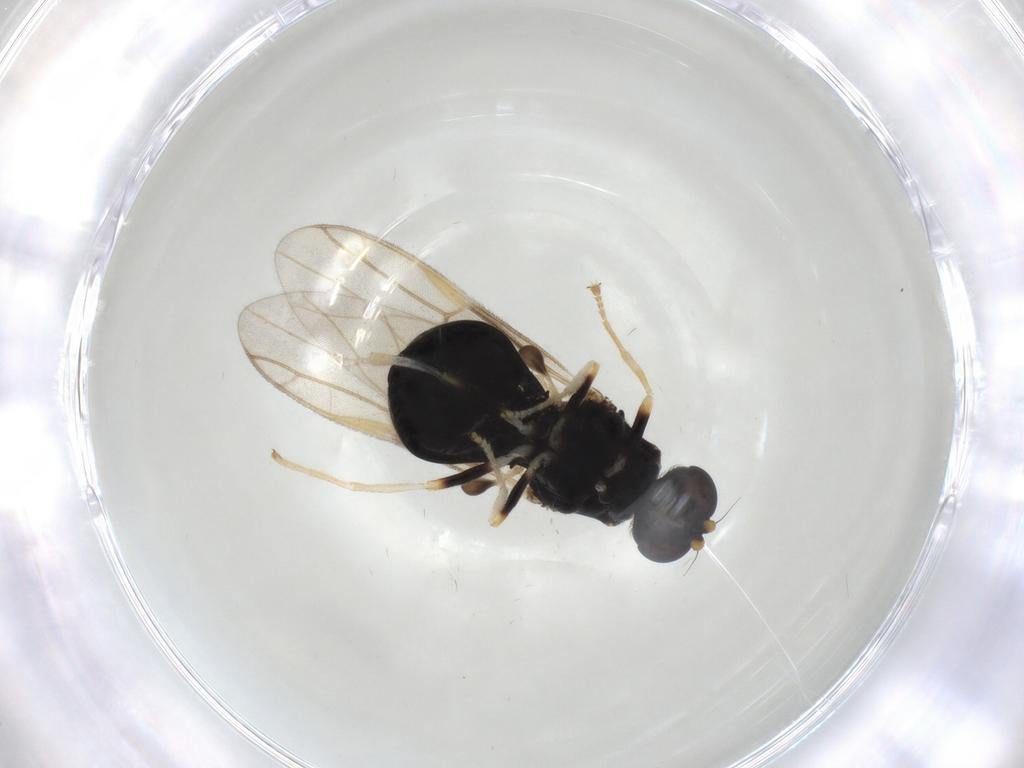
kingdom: Animalia
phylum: Arthropoda
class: Insecta
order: Diptera
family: Stratiomyidae
